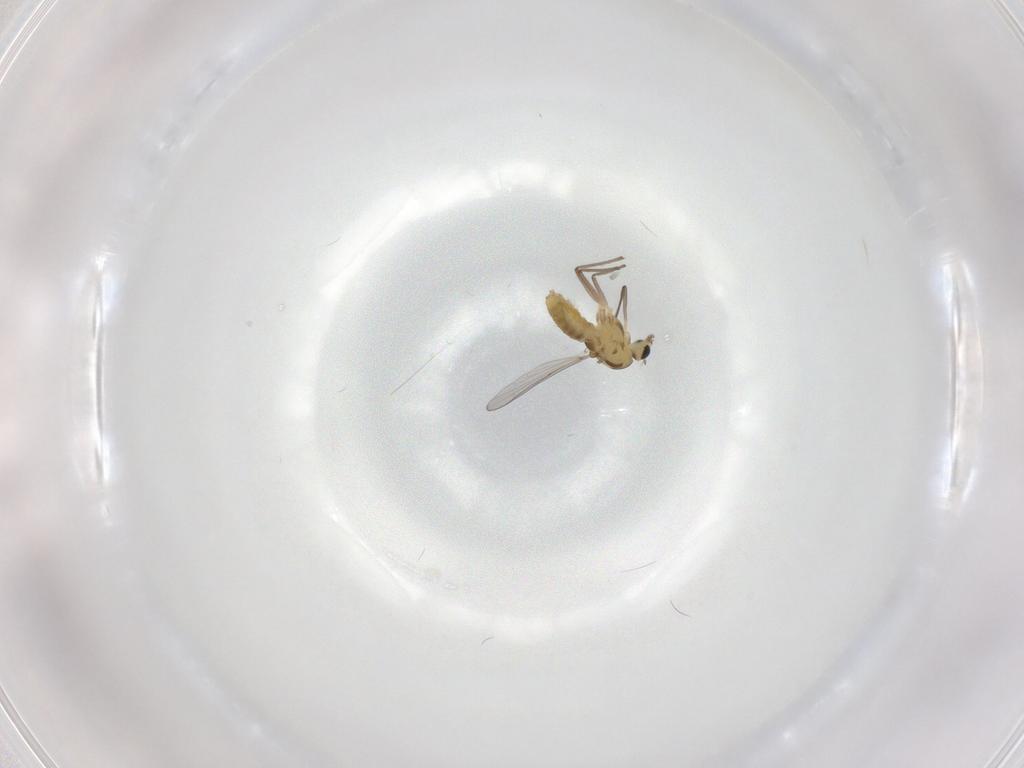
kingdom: Animalia
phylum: Arthropoda
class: Insecta
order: Diptera
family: Chironomidae
